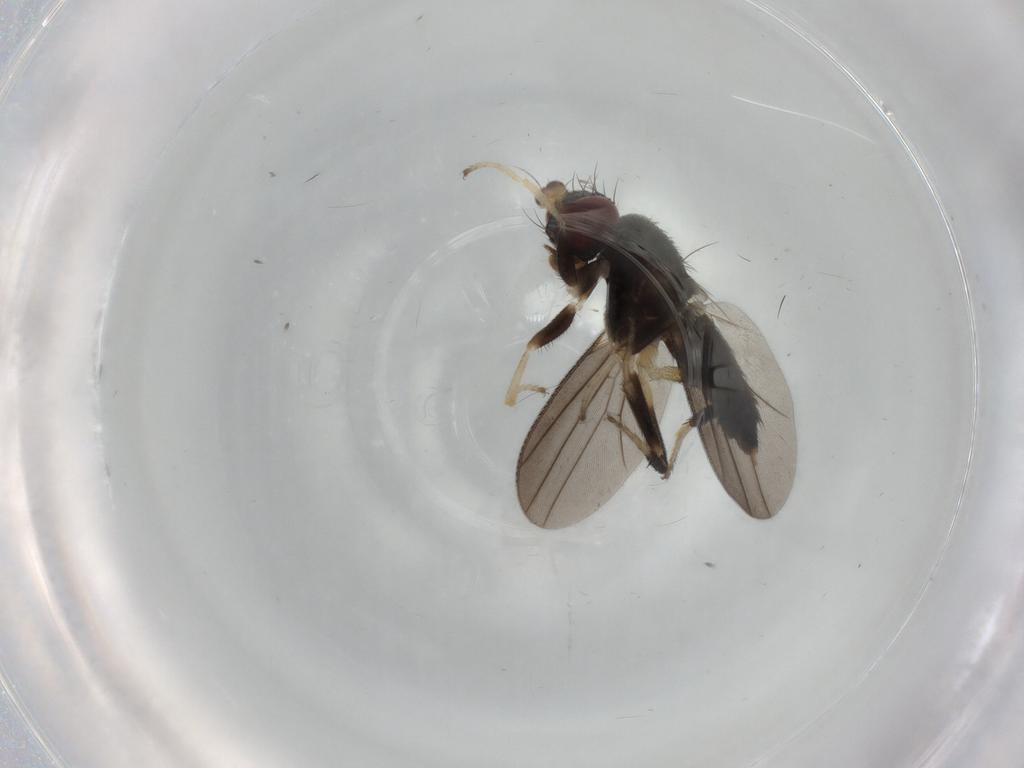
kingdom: Animalia
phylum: Arthropoda
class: Insecta
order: Diptera
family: Clusiidae
